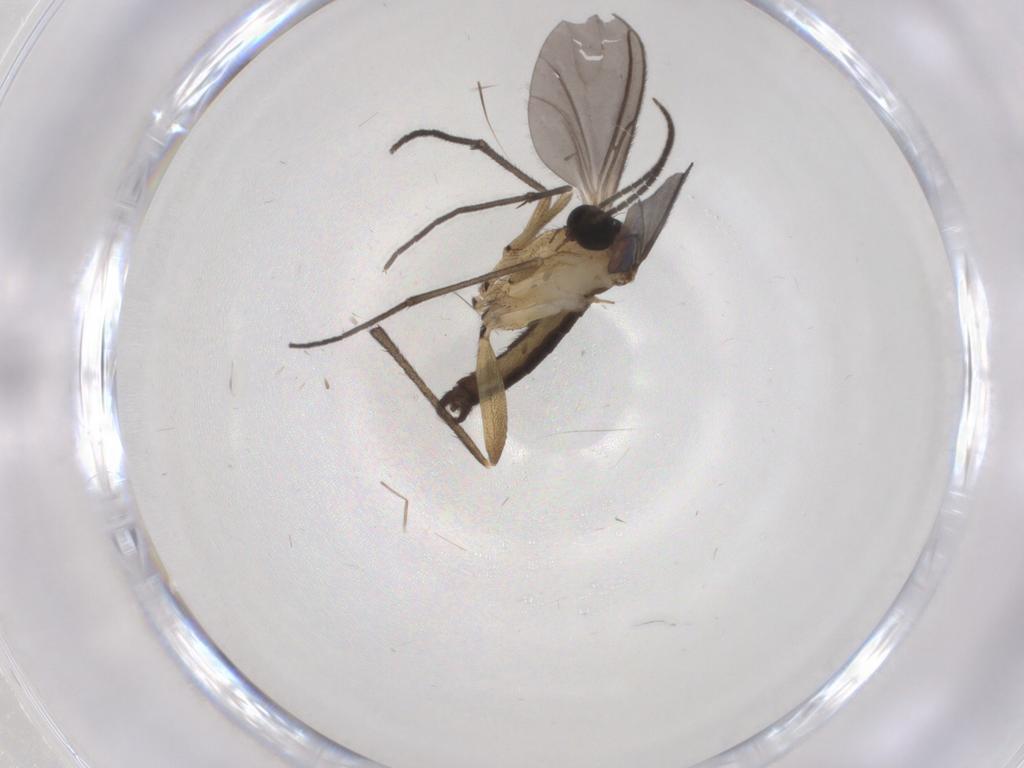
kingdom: Animalia
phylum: Arthropoda
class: Insecta
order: Diptera
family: Sciaridae
